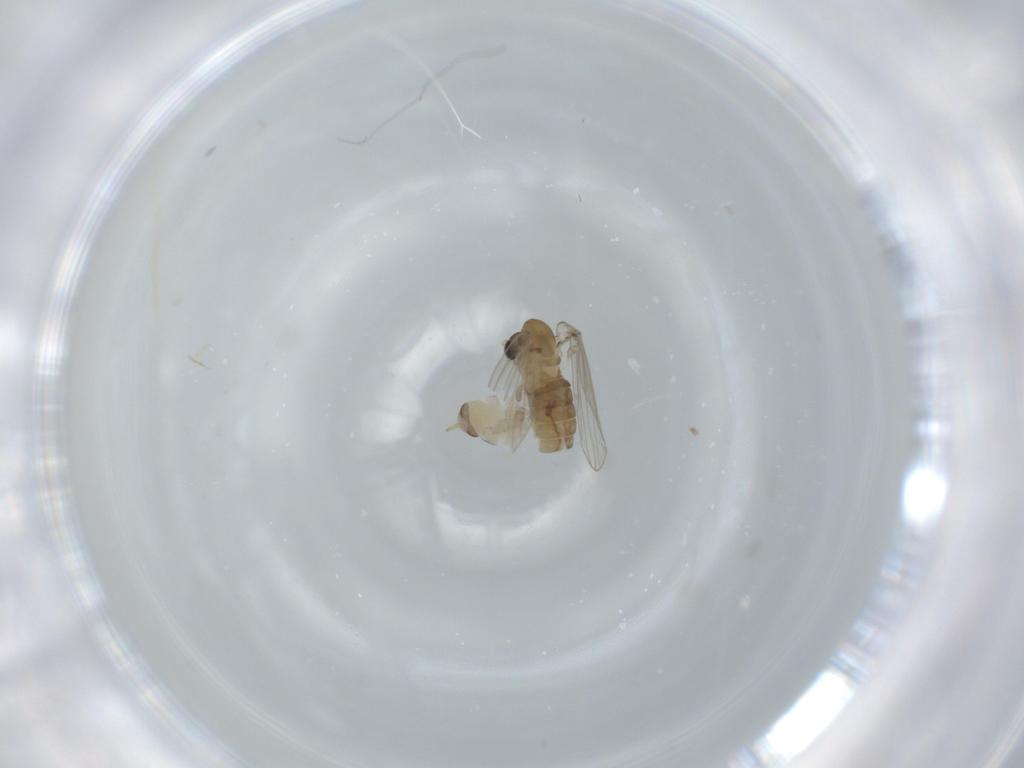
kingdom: Animalia
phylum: Arthropoda
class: Insecta
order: Diptera
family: Psychodidae
